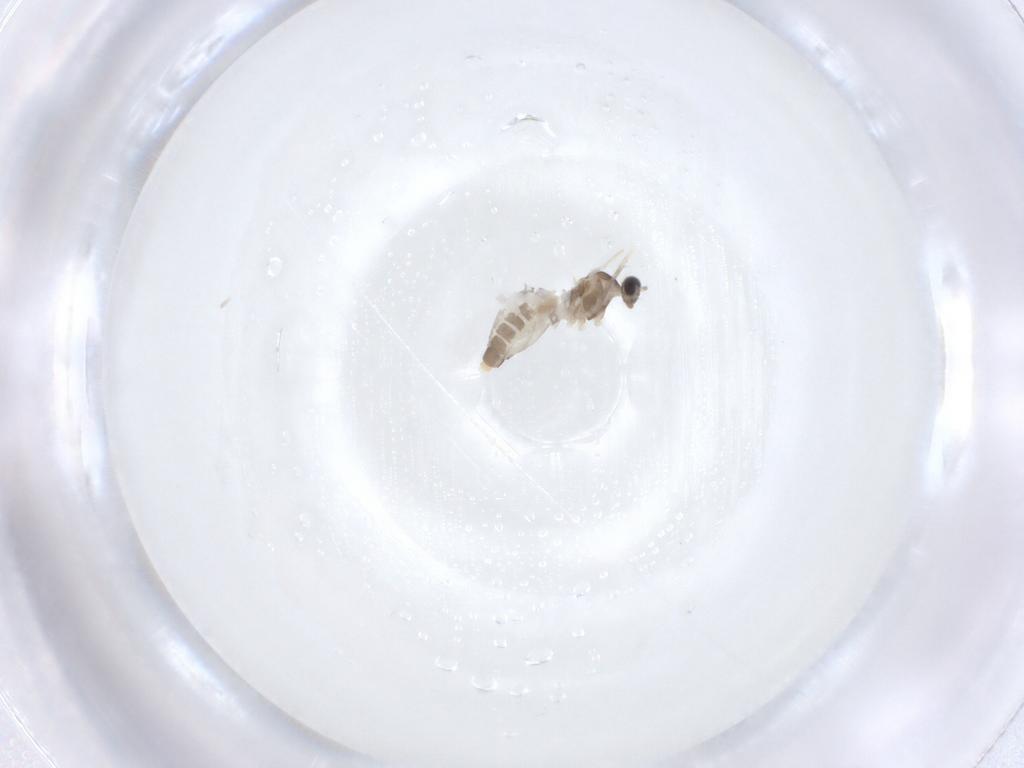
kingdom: Animalia
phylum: Arthropoda
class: Insecta
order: Diptera
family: Cecidomyiidae
